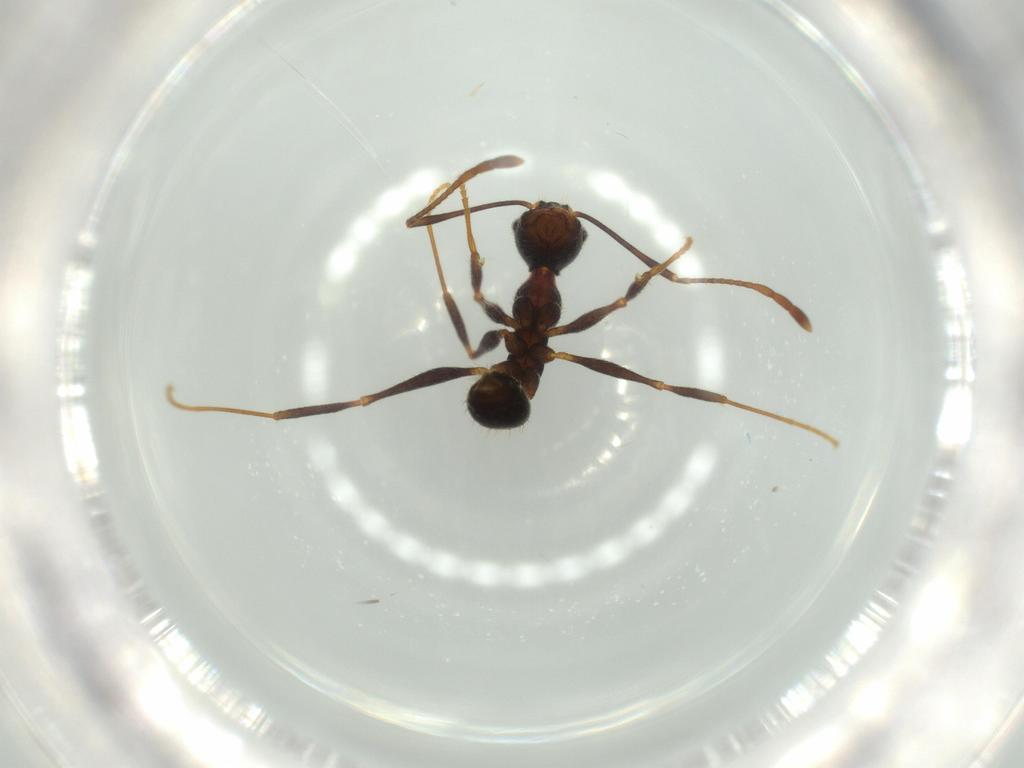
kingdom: Animalia
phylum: Arthropoda
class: Insecta
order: Hymenoptera
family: Formicidae
